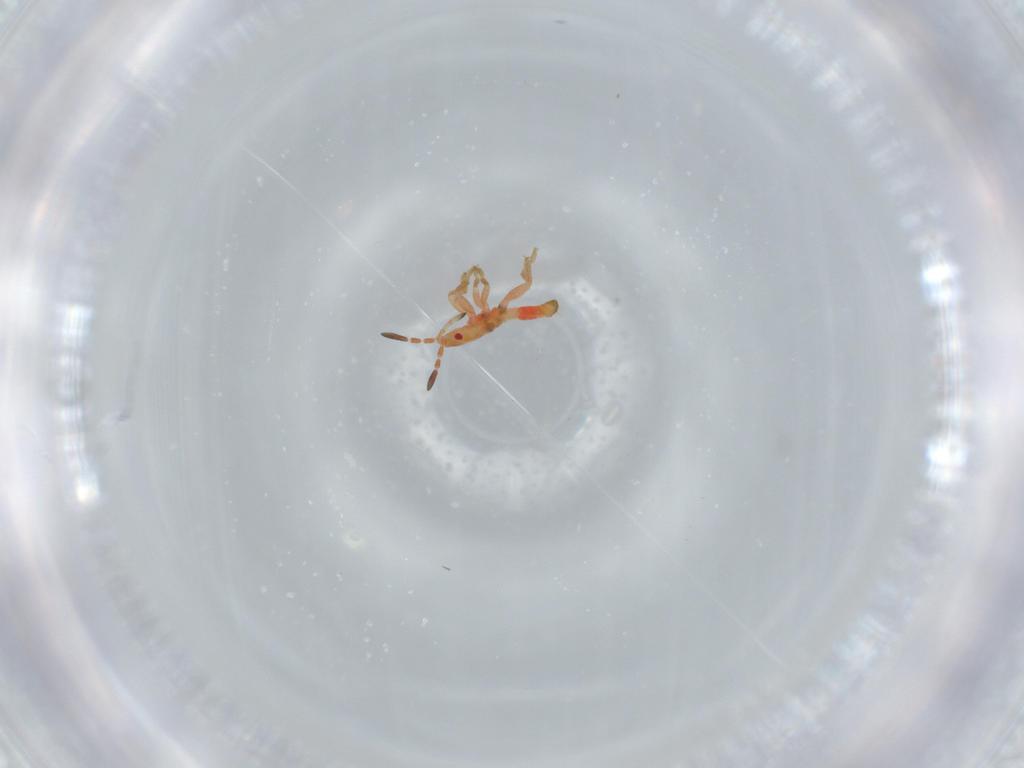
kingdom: Animalia
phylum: Arthropoda
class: Insecta
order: Hemiptera
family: Blissidae
